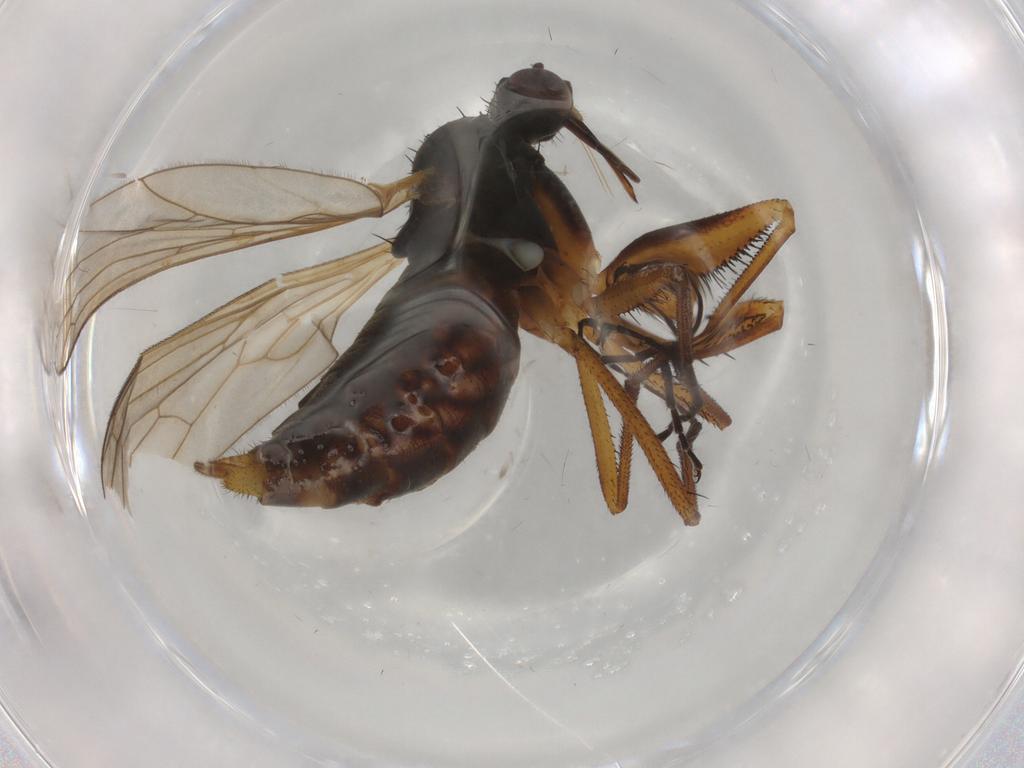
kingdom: Animalia
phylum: Arthropoda
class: Insecta
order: Diptera
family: Empididae
